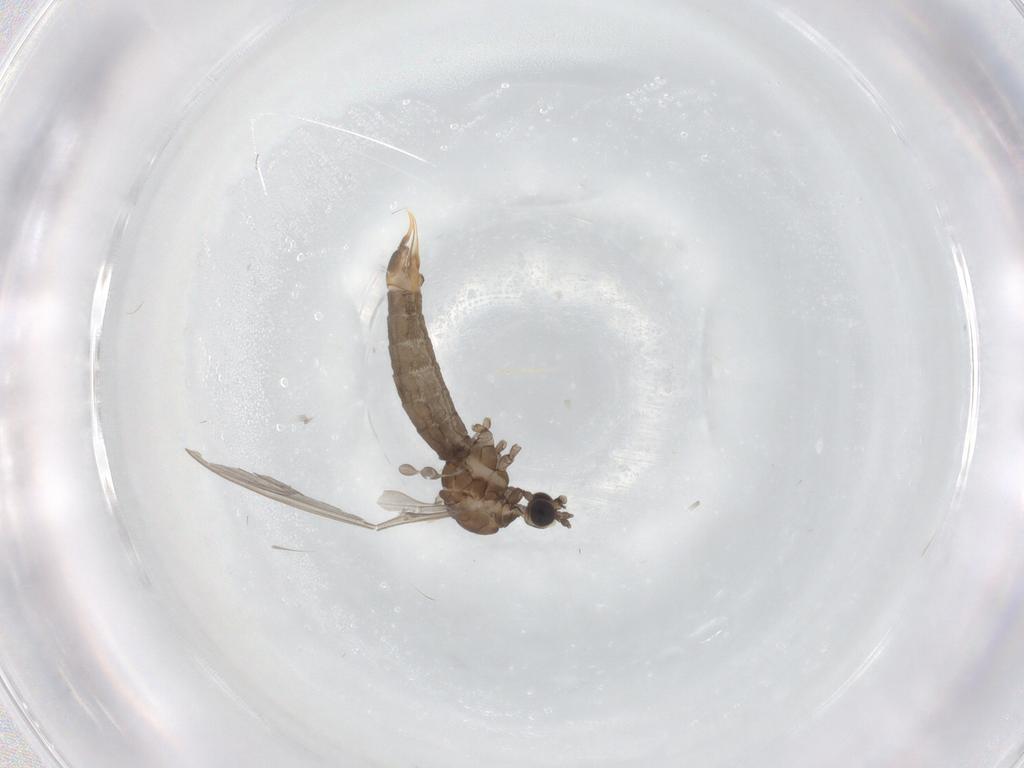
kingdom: Animalia
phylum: Arthropoda
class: Insecta
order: Diptera
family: Limoniidae
